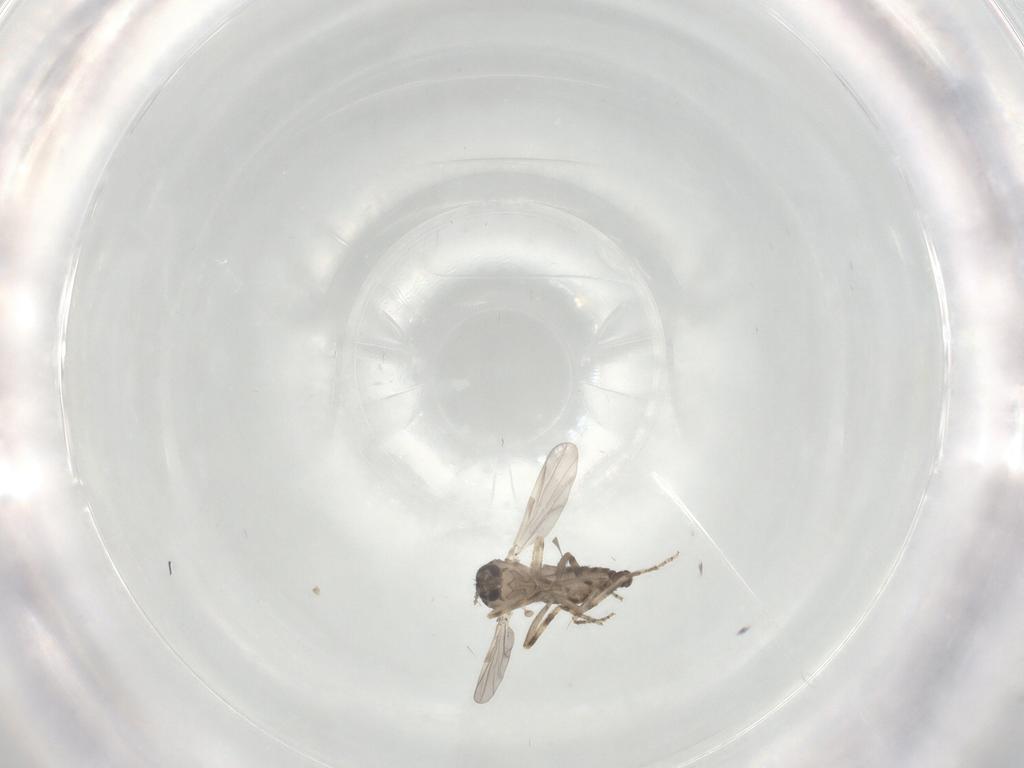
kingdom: Animalia
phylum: Arthropoda
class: Insecta
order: Diptera
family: Ceratopogonidae
